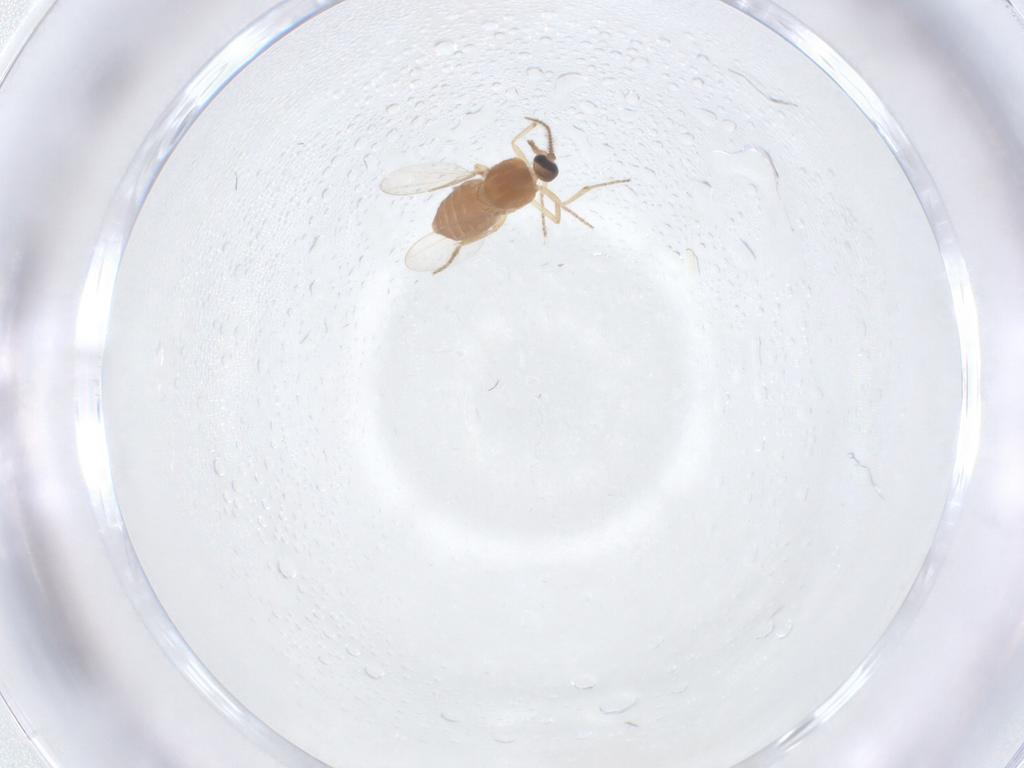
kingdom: Animalia
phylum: Arthropoda
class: Insecta
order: Diptera
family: Ceratopogonidae
